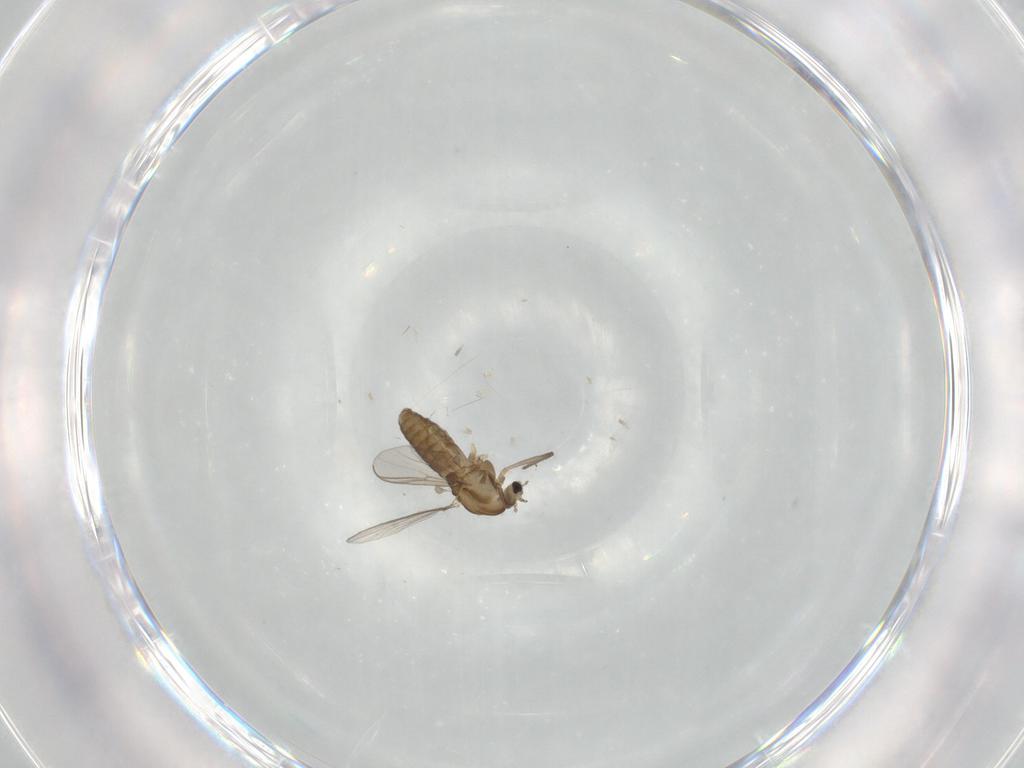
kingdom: Animalia
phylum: Arthropoda
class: Insecta
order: Diptera
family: Chironomidae
